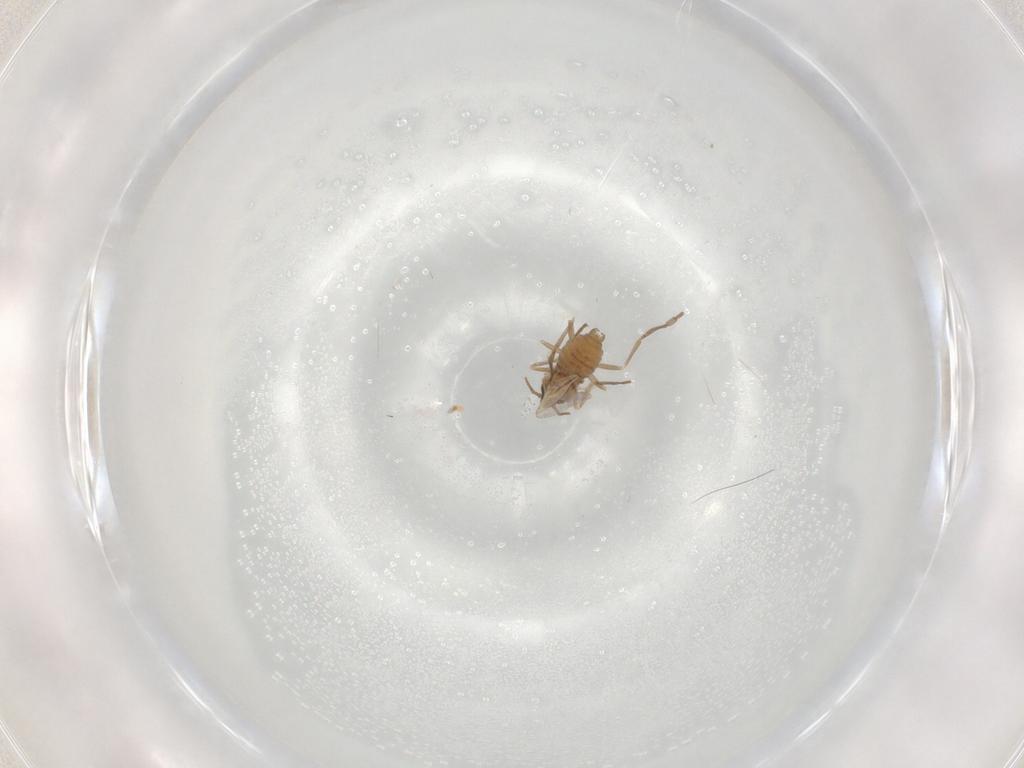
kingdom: Animalia
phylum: Arthropoda
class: Insecta
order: Diptera
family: Cecidomyiidae
